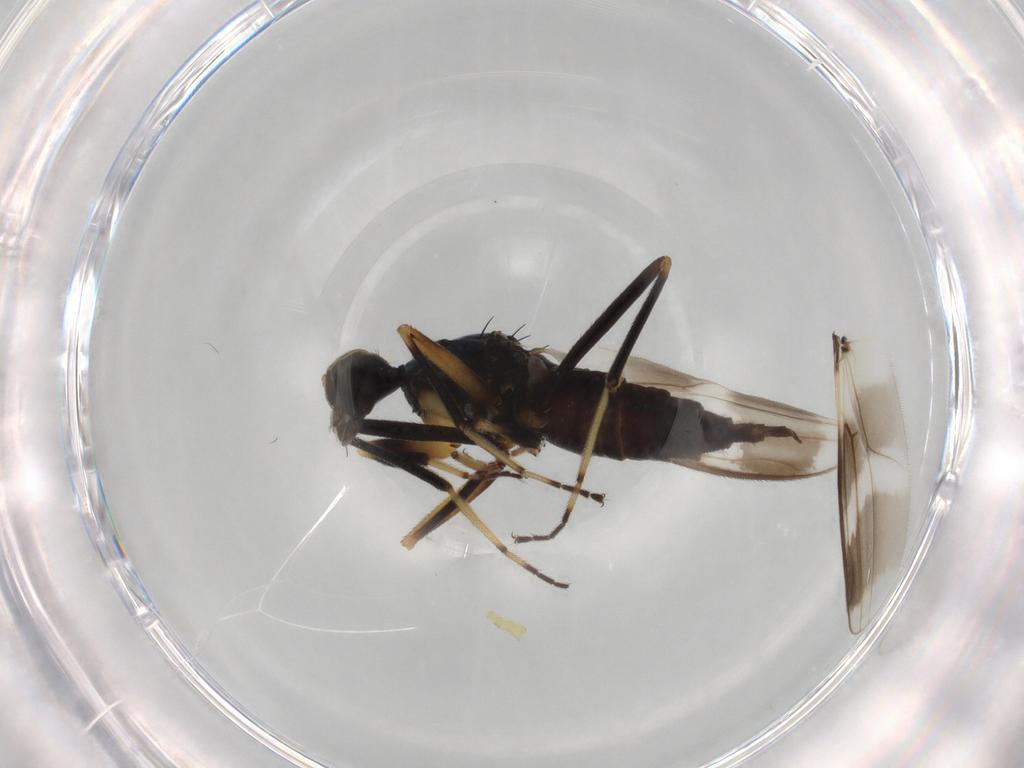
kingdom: Animalia
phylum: Arthropoda
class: Insecta
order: Diptera
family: Hybotidae
